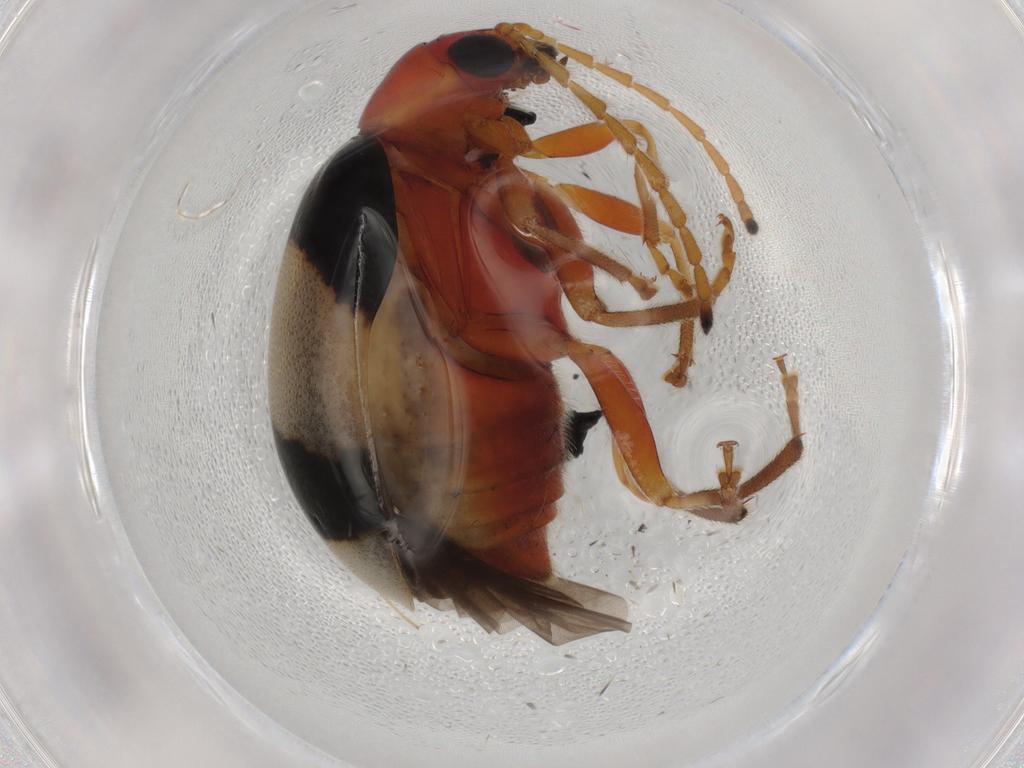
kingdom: Animalia
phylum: Arthropoda
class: Insecta
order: Coleoptera
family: Chrysomelidae
